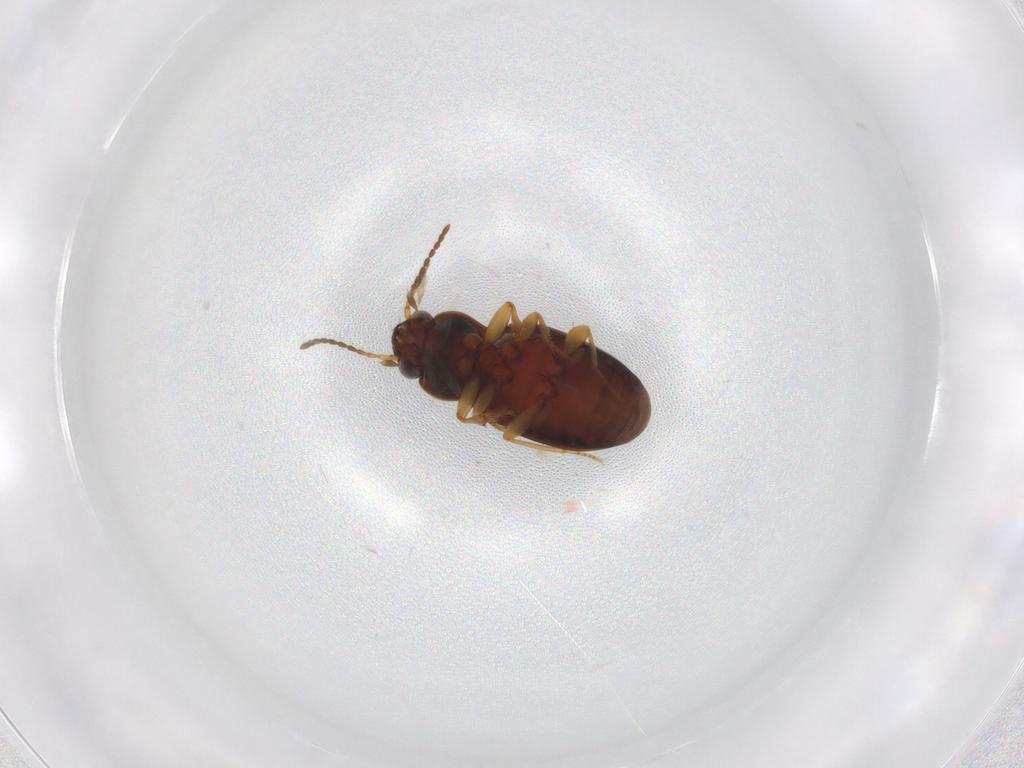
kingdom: Animalia
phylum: Arthropoda
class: Insecta
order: Coleoptera
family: Carabidae
